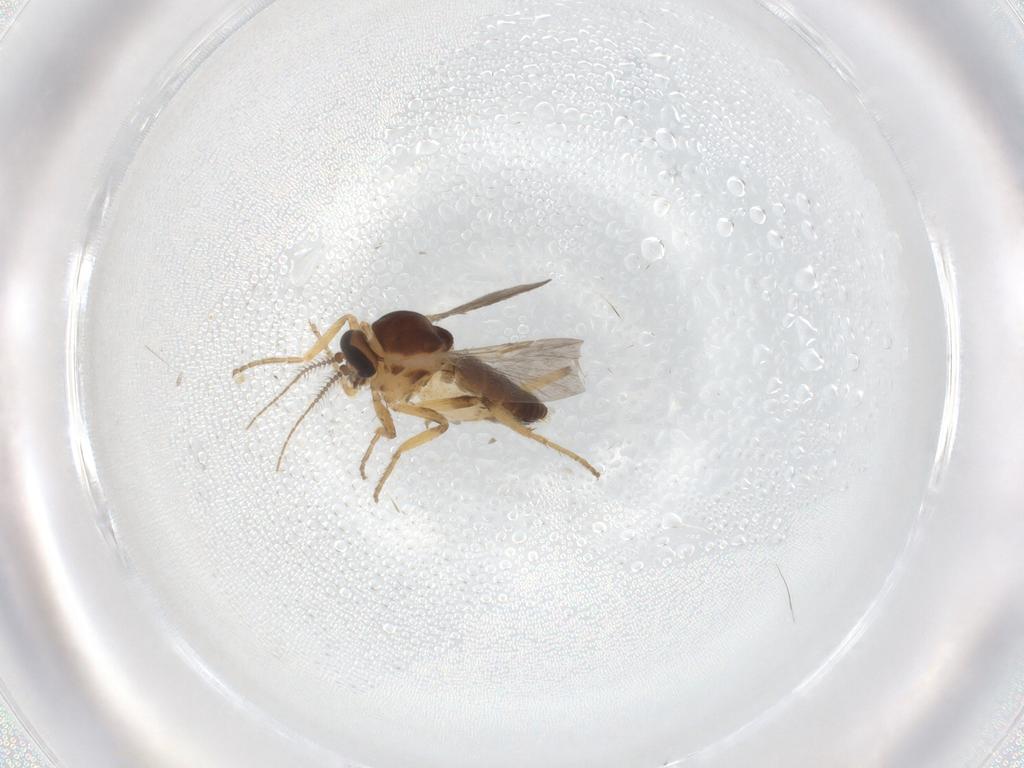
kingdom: Animalia
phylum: Arthropoda
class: Insecta
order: Diptera
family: Ceratopogonidae
